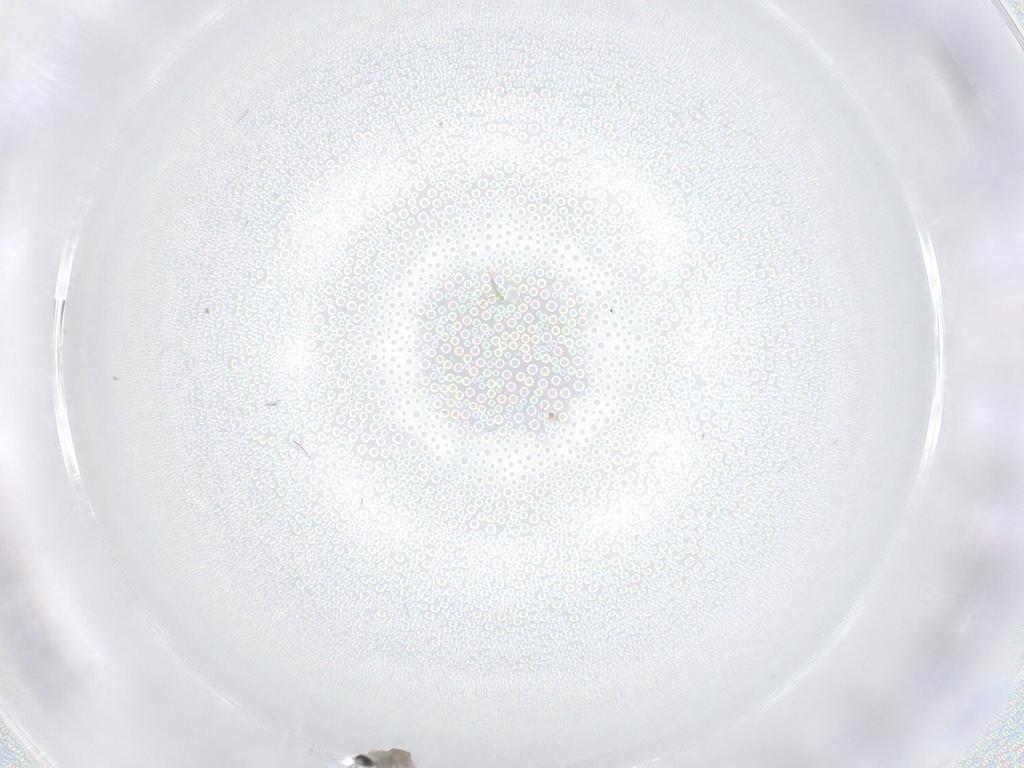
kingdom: Animalia
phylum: Arthropoda
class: Insecta
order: Diptera
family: Cecidomyiidae
